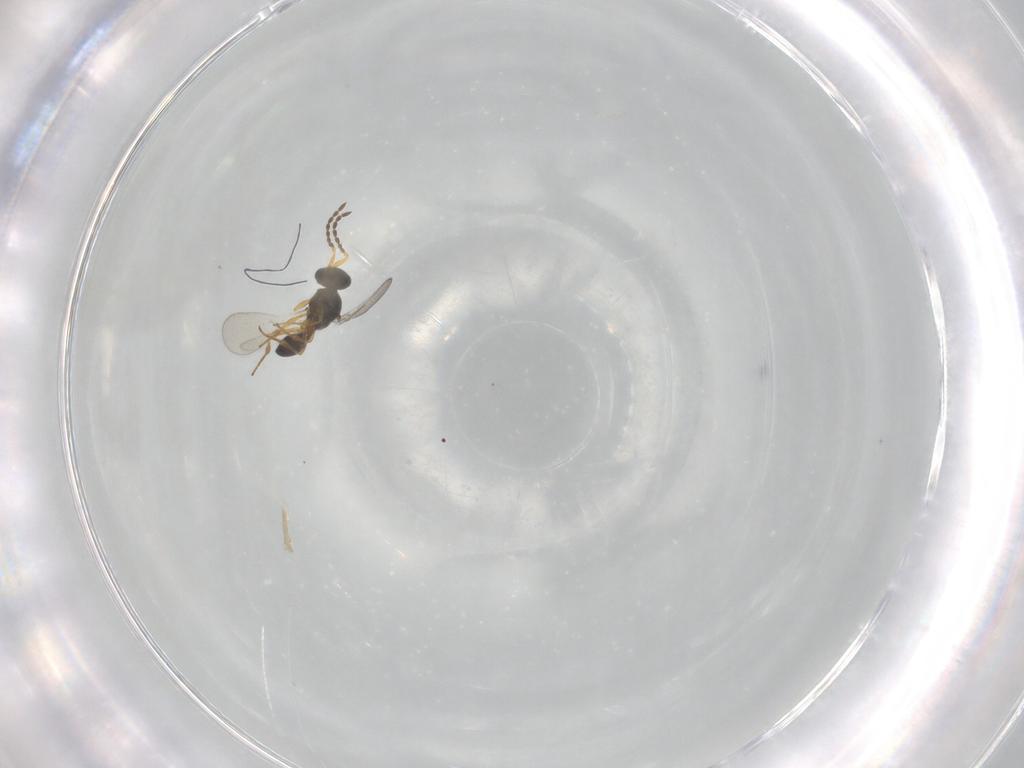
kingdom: Animalia
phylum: Arthropoda
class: Insecta
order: Hymenoptera
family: Platygastridae
